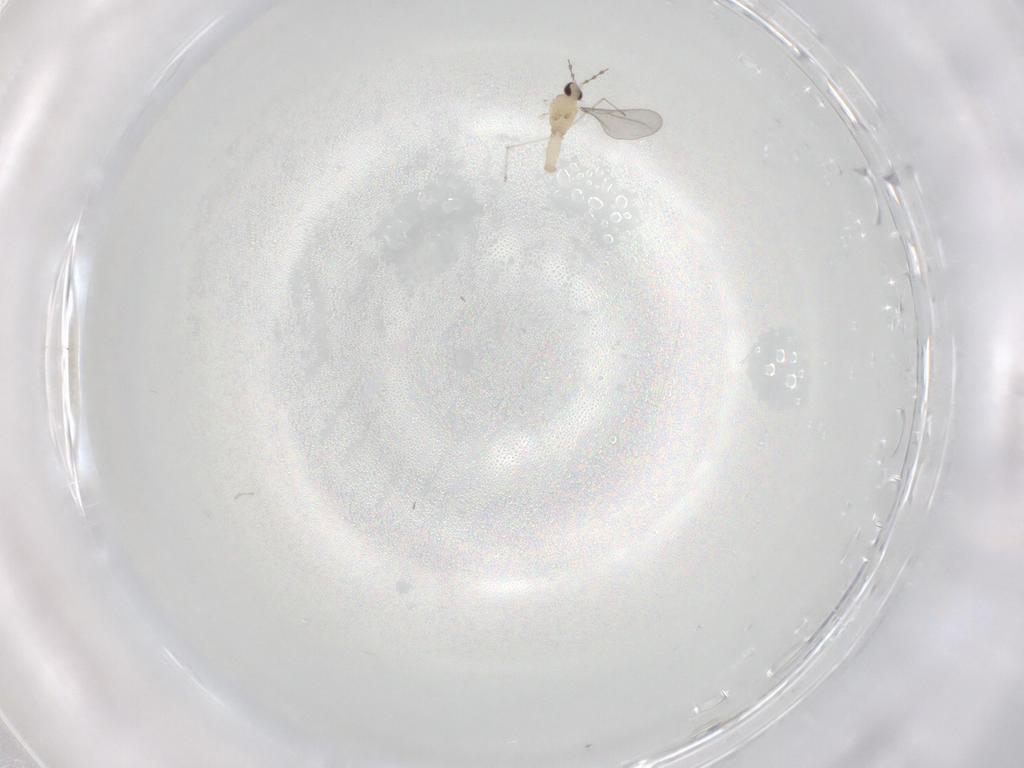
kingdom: Animalia
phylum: Arthropoda
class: Insecta
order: Diptera
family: Cecidomyiidae
